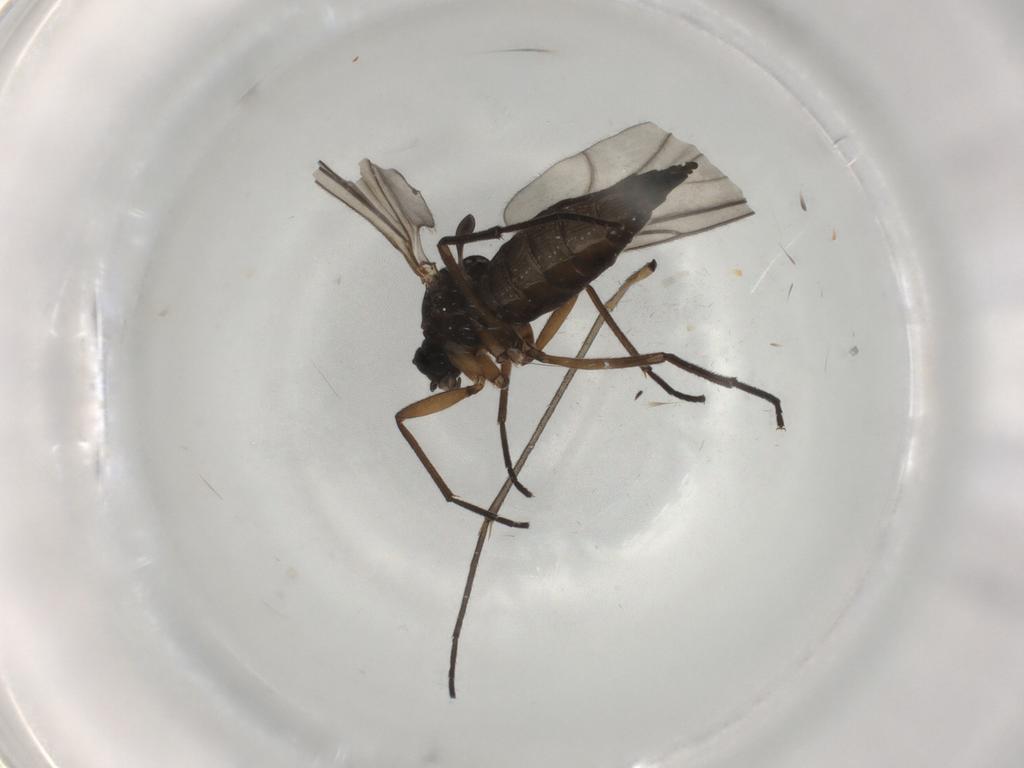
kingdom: Animalia
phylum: Arthropoda
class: Insecta
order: Diptera
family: Sciaridae
